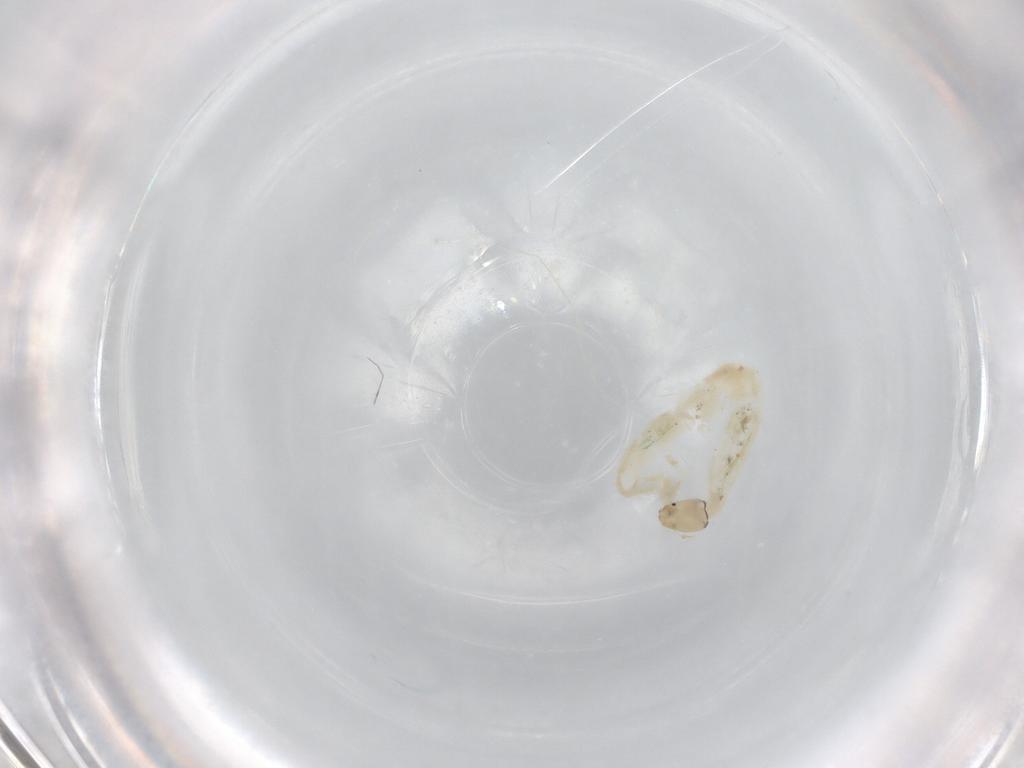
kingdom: Animalia
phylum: Arthropoda
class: Insecta
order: Diptera
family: Chironomidae
